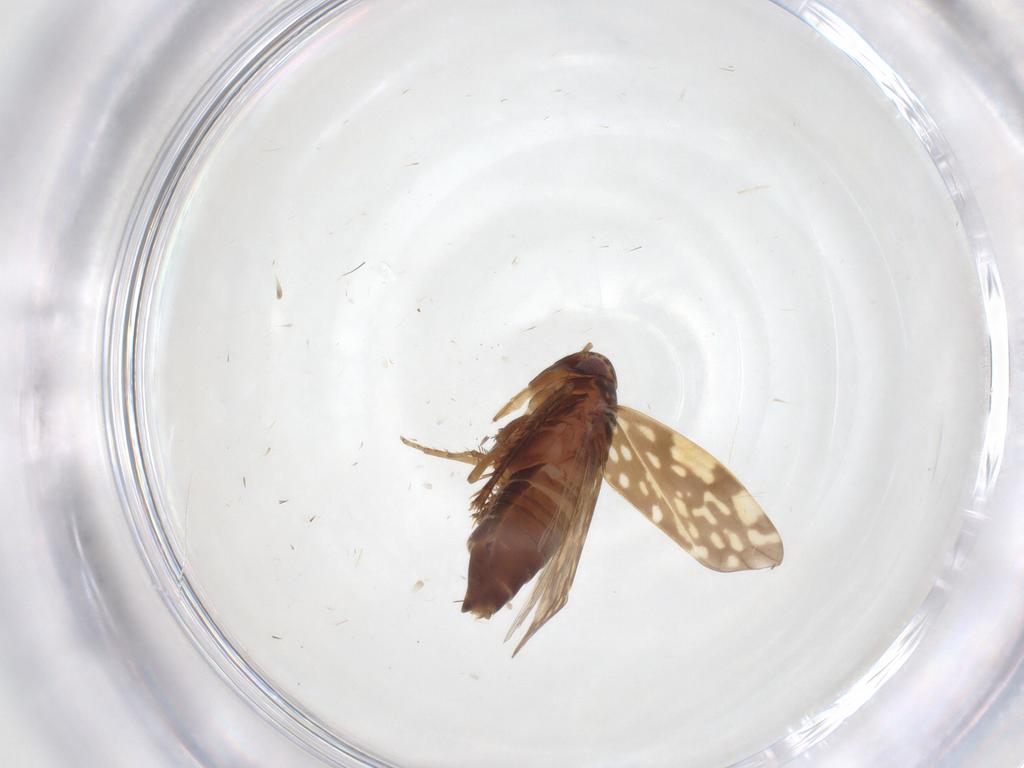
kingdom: Animalia
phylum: Arthropoda
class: Insecta
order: Hemiptera
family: Cicadellidae
